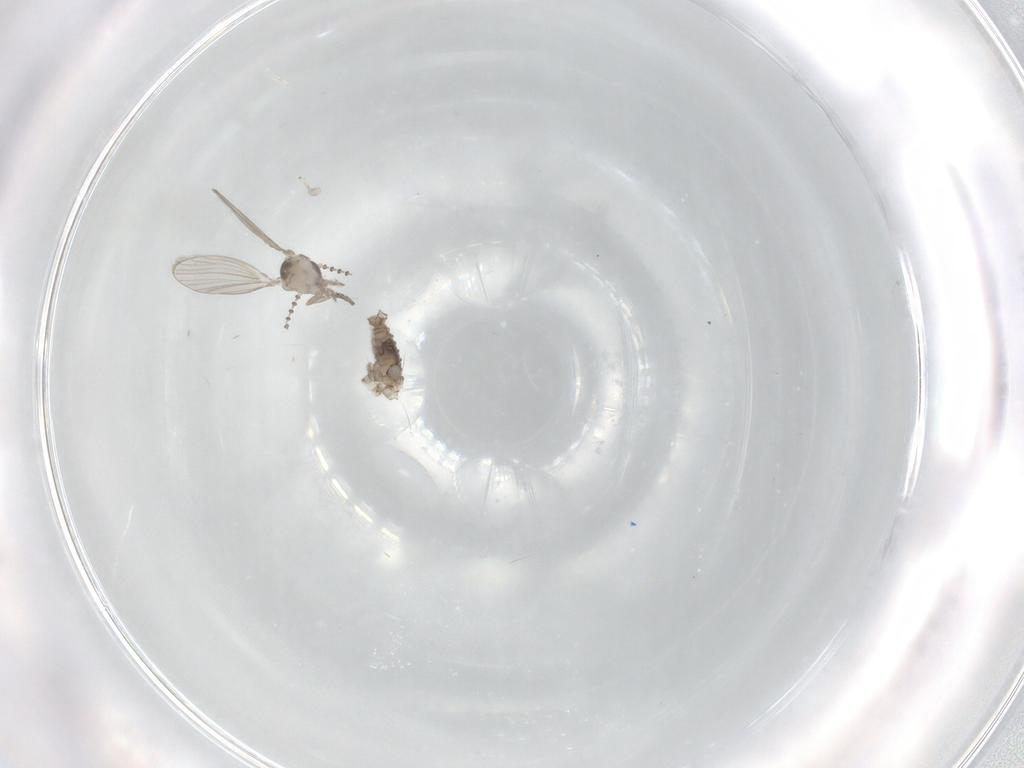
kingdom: Animalia
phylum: Arthropoda
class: Insecta
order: Diptera
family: Psychodidae
